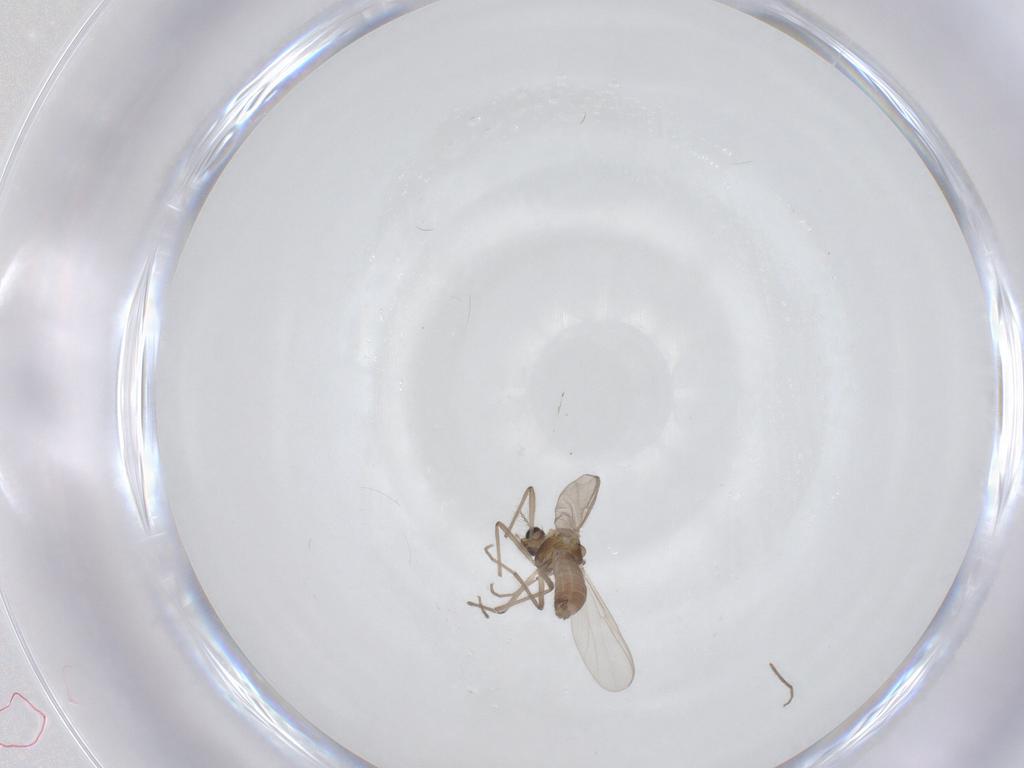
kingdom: Animalia
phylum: Arthropoda
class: Insecta
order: Diptera
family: Chironomidae
